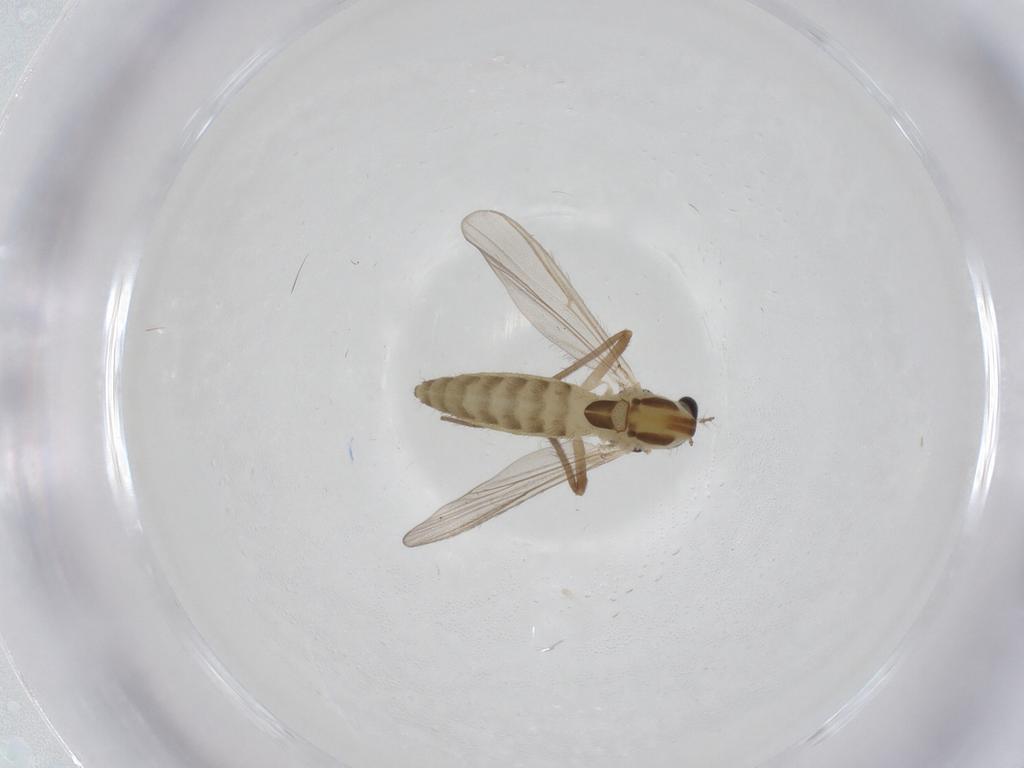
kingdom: Animalia
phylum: Arthropoda
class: Insecta
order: Diptera
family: Chironomidae
